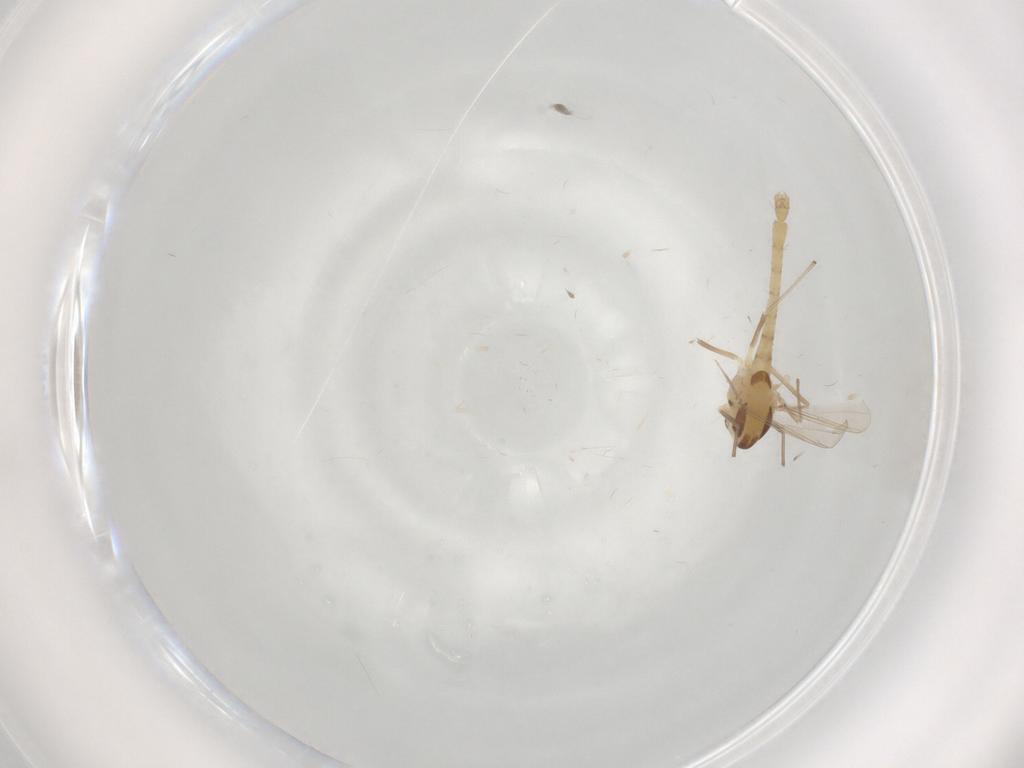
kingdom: Animalia
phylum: Arthropoda
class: Insecta
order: Diptera
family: Chironomidae
